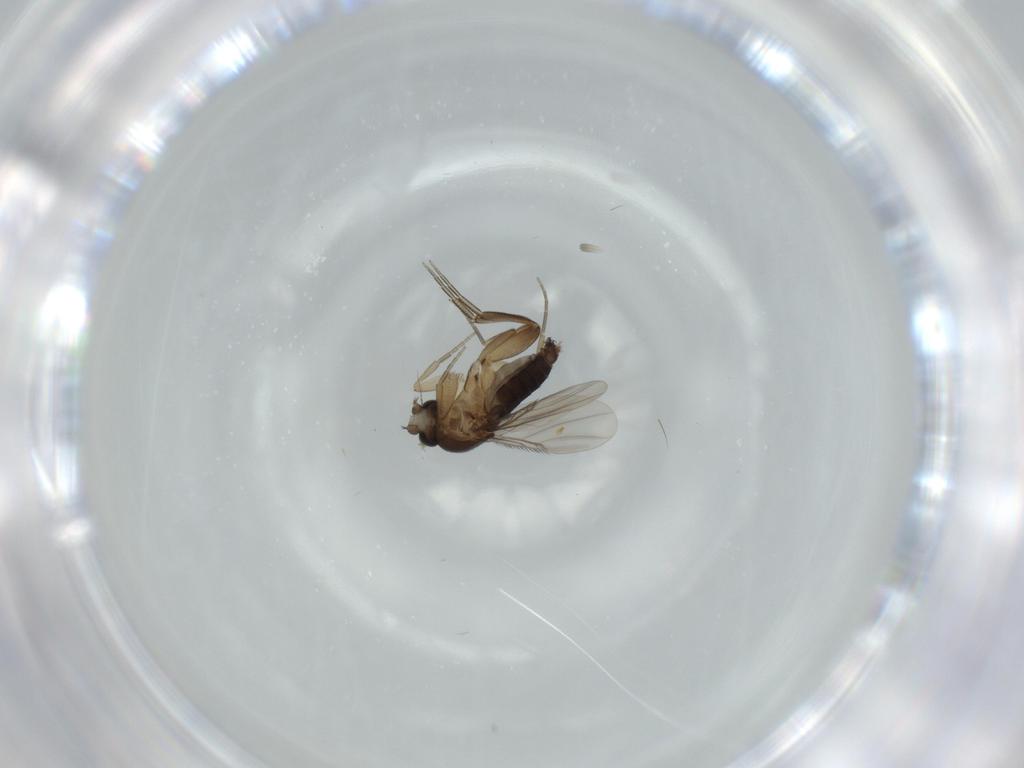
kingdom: Animalia
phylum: Arthropoda
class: Insecta
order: Diptera
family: Phoridae
